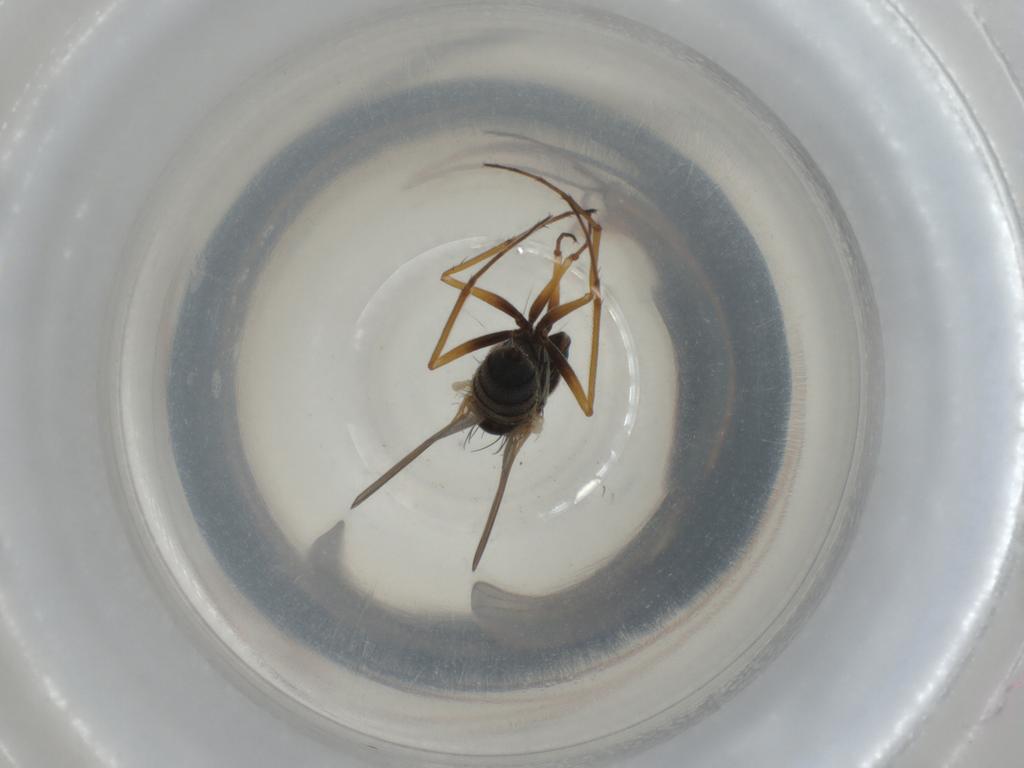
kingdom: Animalia
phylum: Arthropoda
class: Insecta
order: Diptera
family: Dolichopodidae
